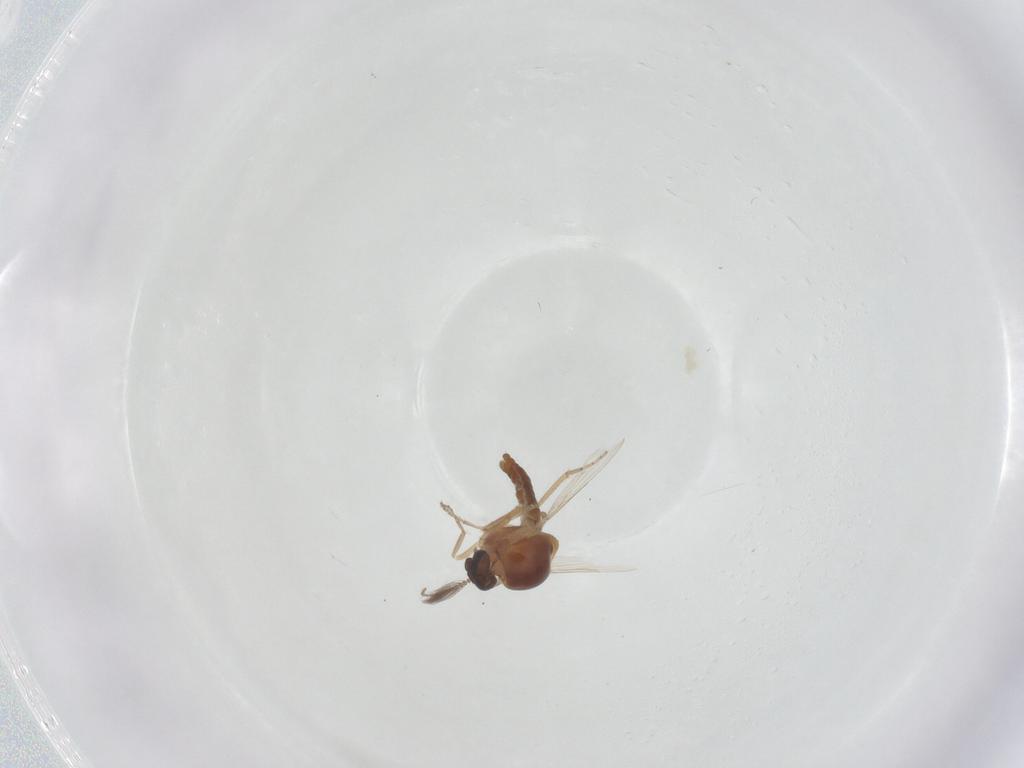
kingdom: Animalia
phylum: Arthropoda
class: Insecta
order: Diptera
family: Ceratopogonidae
